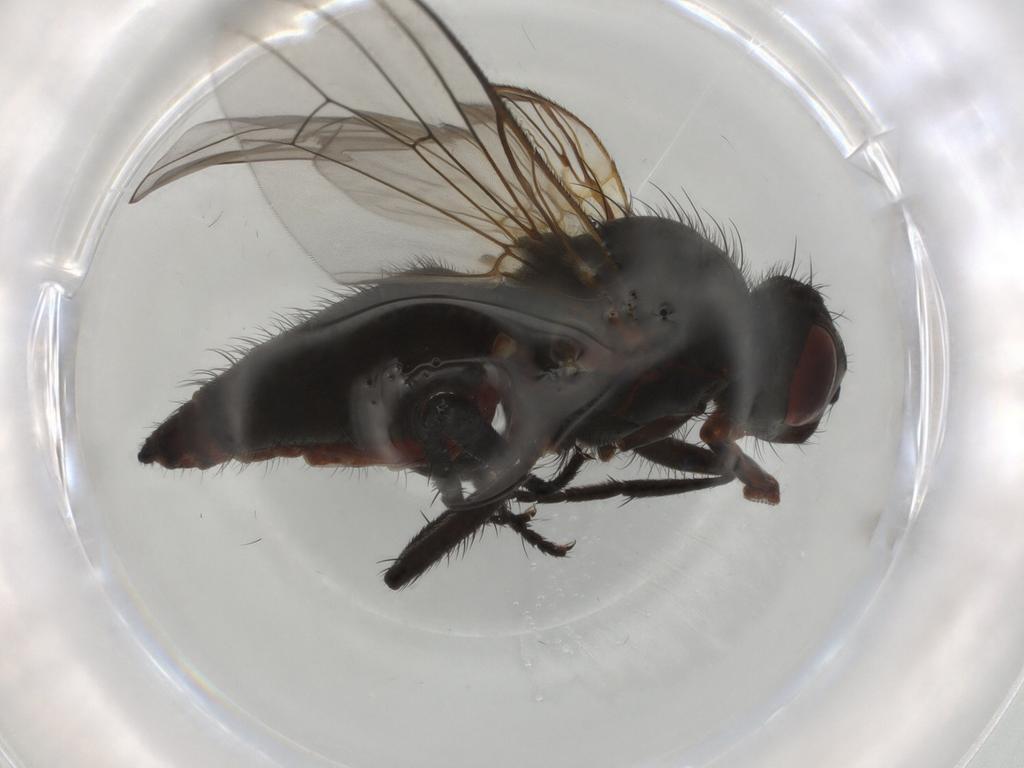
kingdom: Animalia
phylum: Arthropoda
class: Insecta
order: Diptera
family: Anthomyiidae
